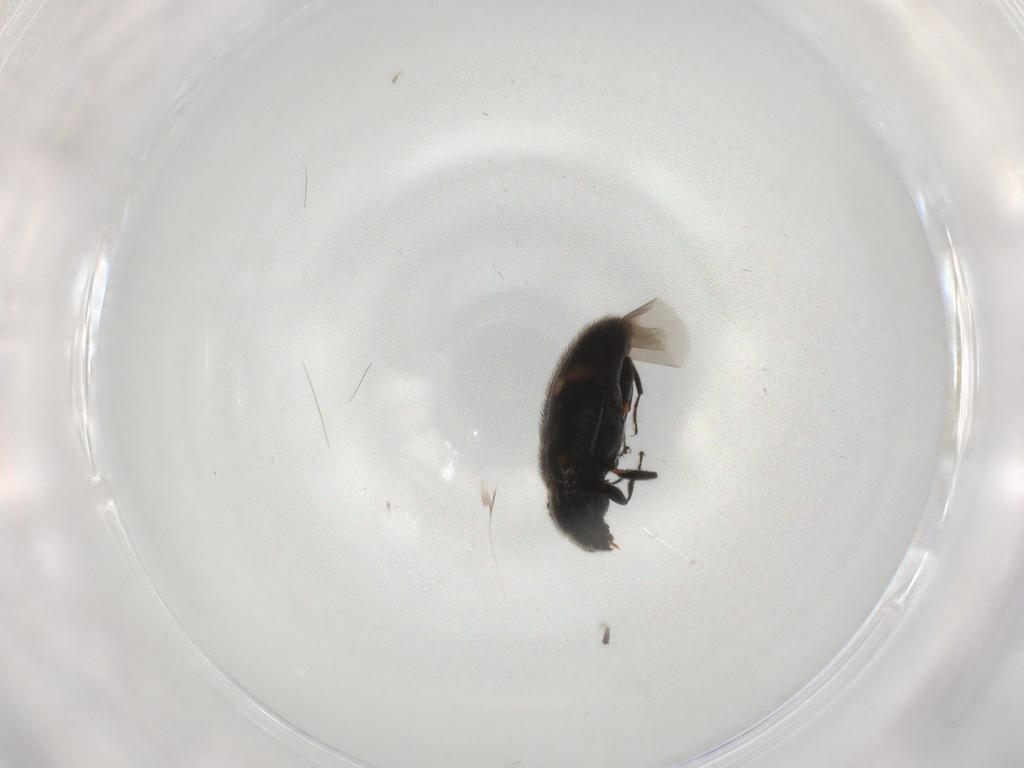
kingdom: Animalia
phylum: Arthropoda
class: Insecta
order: Coleoptera
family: Erotylidae
